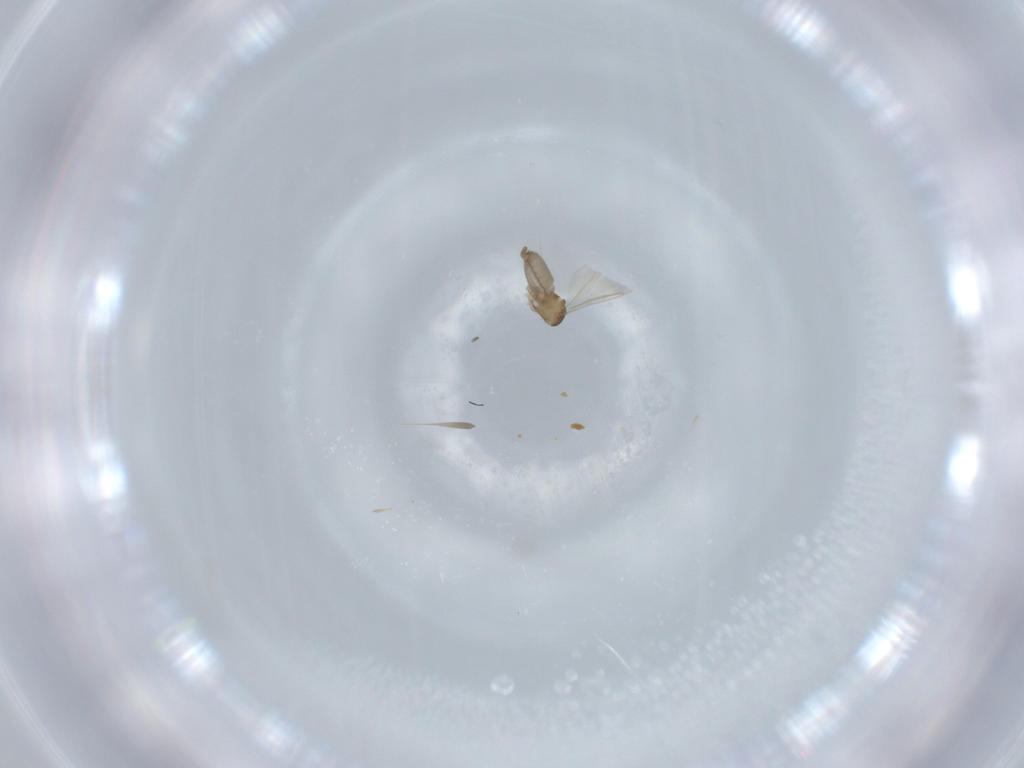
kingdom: Animalia
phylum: Arthropoda
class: Insecta
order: Diptera
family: Cecidomyiidae
